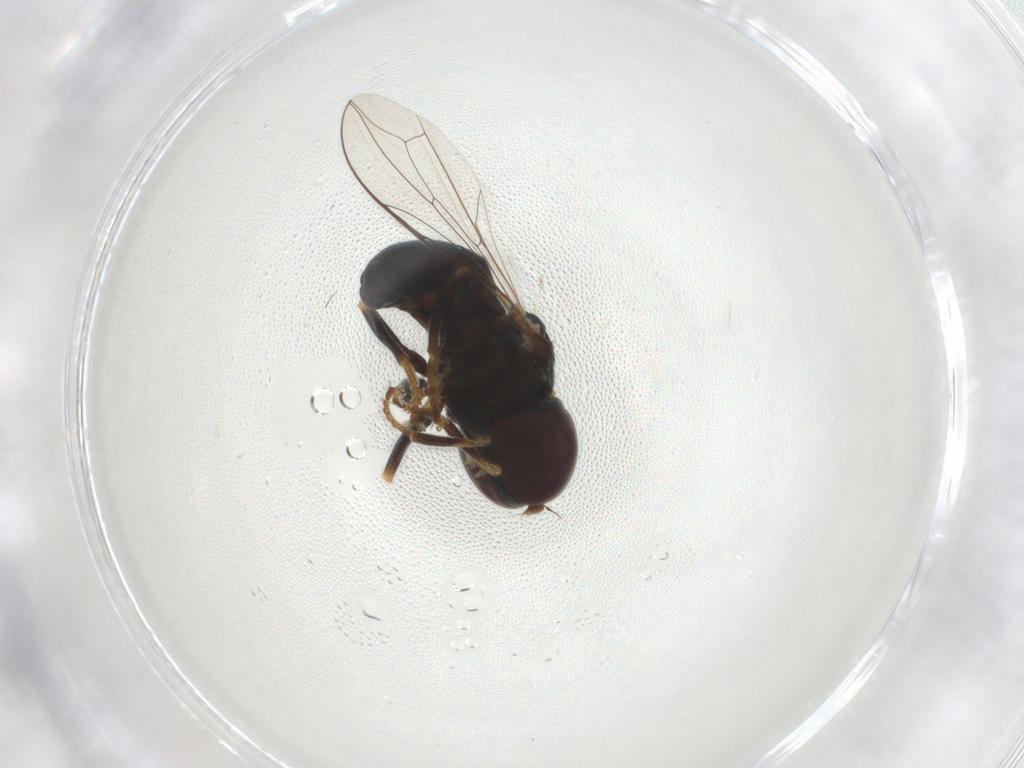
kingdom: Animalia
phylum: Arthropoda
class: Insecta
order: Diptera
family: Pipunculidae
